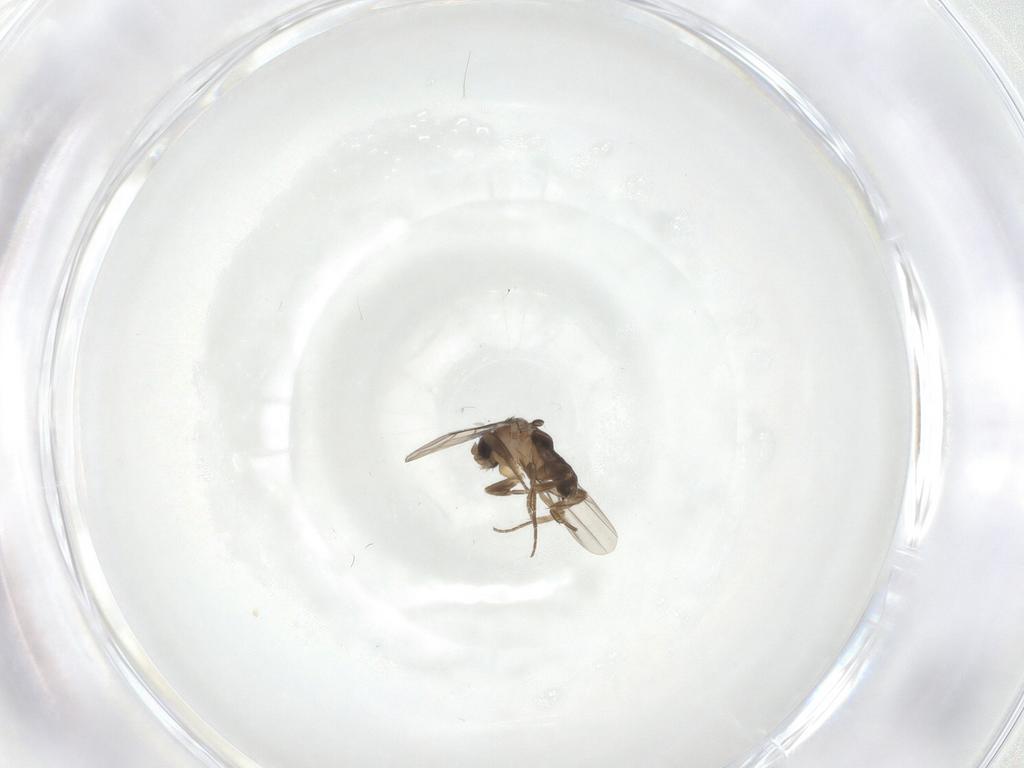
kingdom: Animalia
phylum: Arthropoda
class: Insecta
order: Diptera
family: Phoridae
